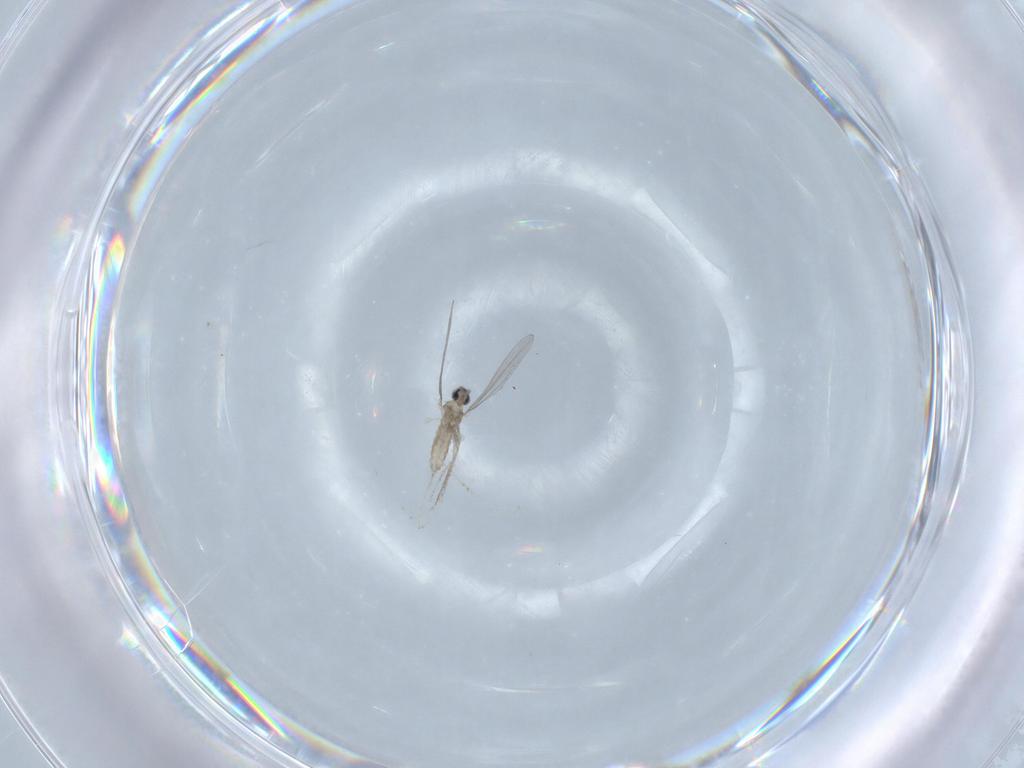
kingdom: Animalia
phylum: Arthropoda
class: Insecta
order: Diptera
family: Cecidomyiidae
